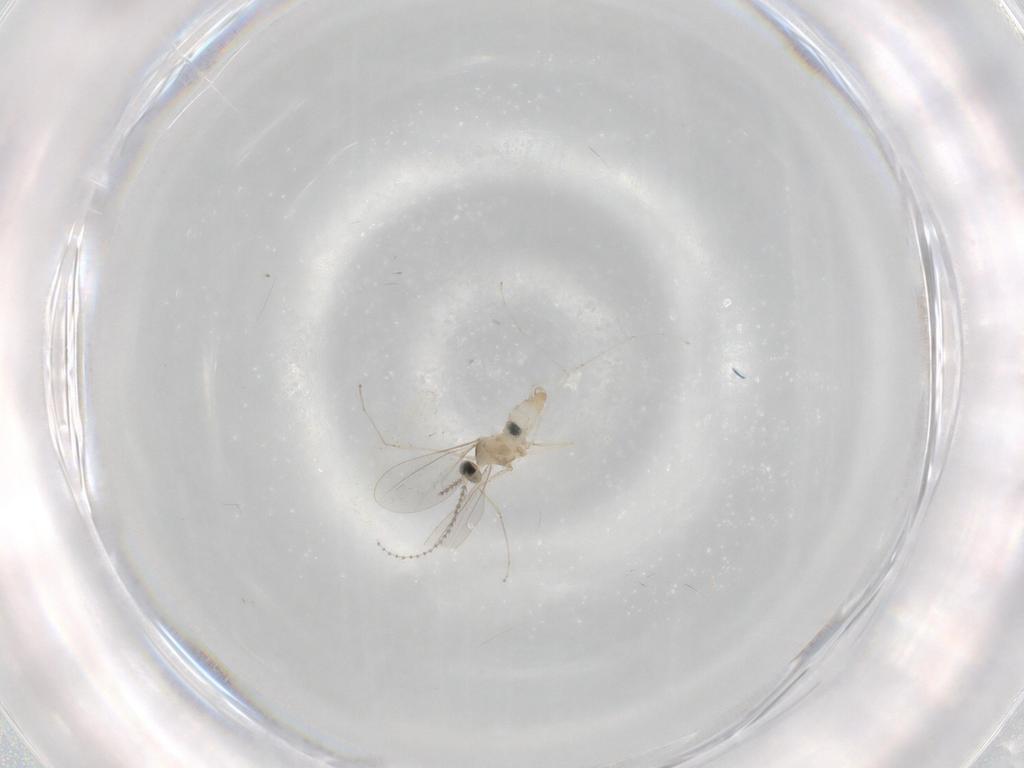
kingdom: Animalia
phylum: Arthropoda
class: Insecta
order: Diptera
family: Cecidomyiidae
